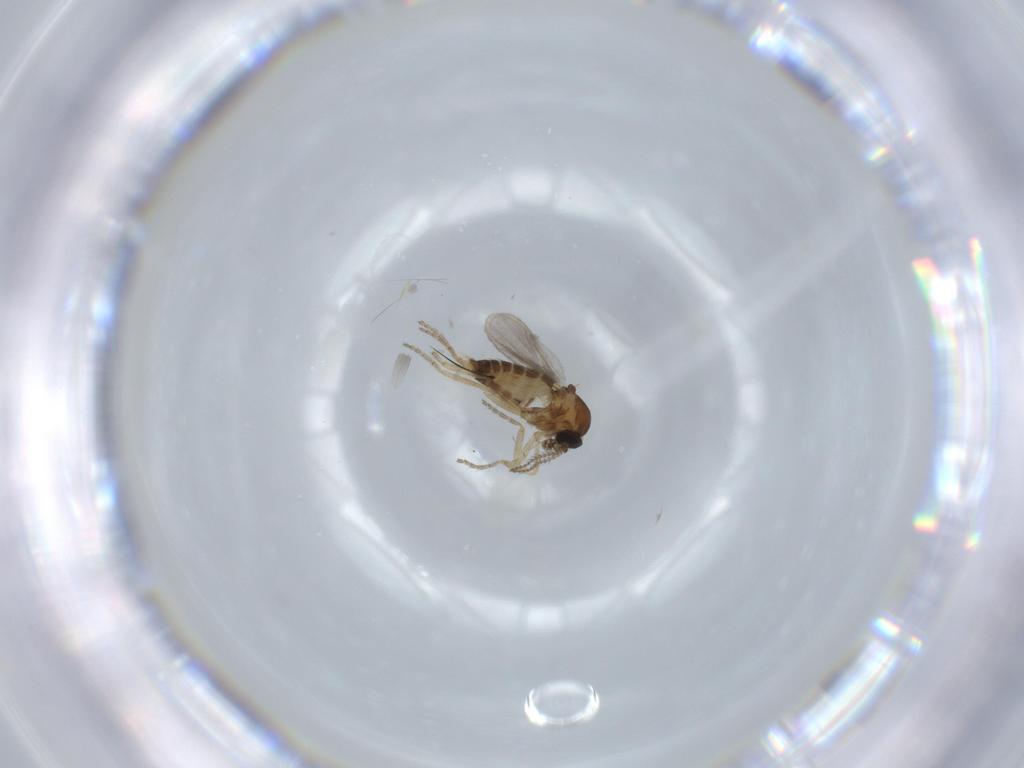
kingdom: Animalia
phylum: Arthropoda
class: Insecta
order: Diptera
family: Ceratopogonidae
